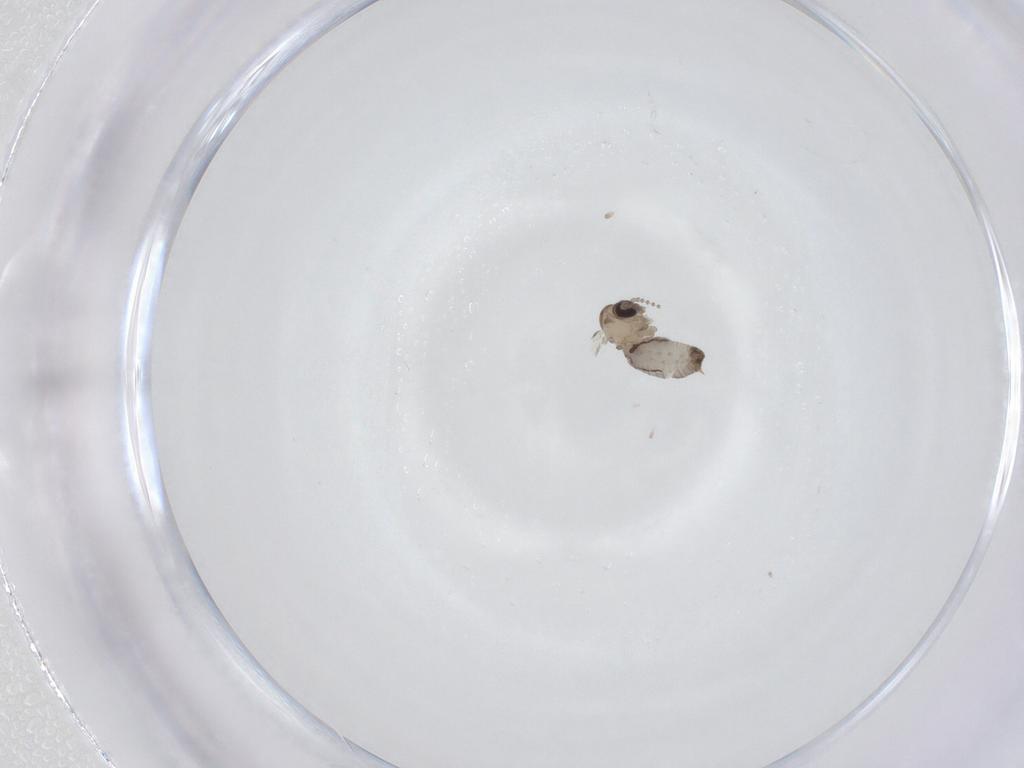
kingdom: Animalia
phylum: Arthropoda
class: Insecta
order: Diptera
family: Psychodidae
